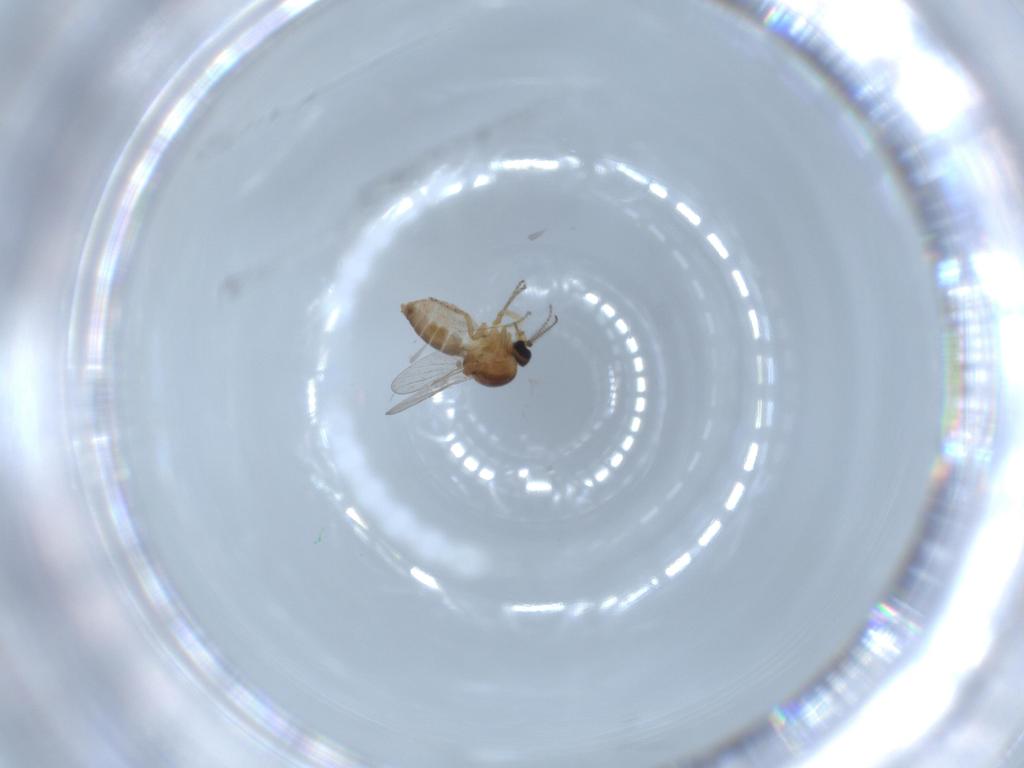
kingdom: Animalia
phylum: Arthropoda
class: Insecta
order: Diptera
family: Ceratopogonidae
